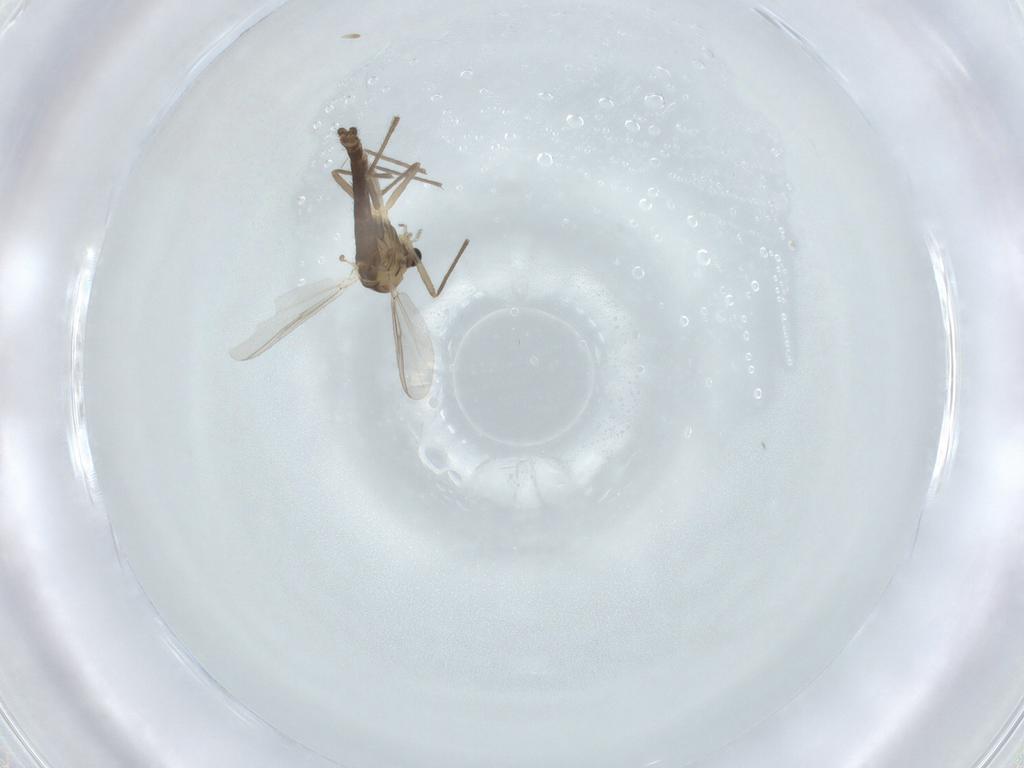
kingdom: Animalia
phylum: Arthropoda
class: Insecta
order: Diptera
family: Chironomidae
